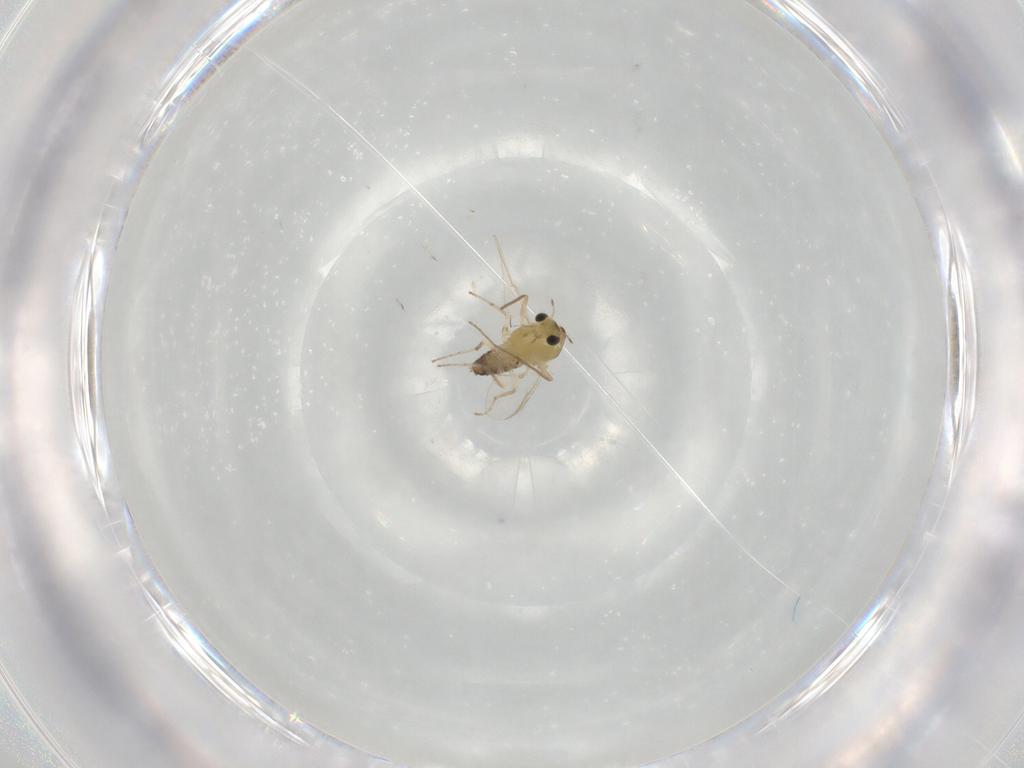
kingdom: Animalia
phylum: Arthropoda
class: Insecta
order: Diptera
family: Chironomidae
